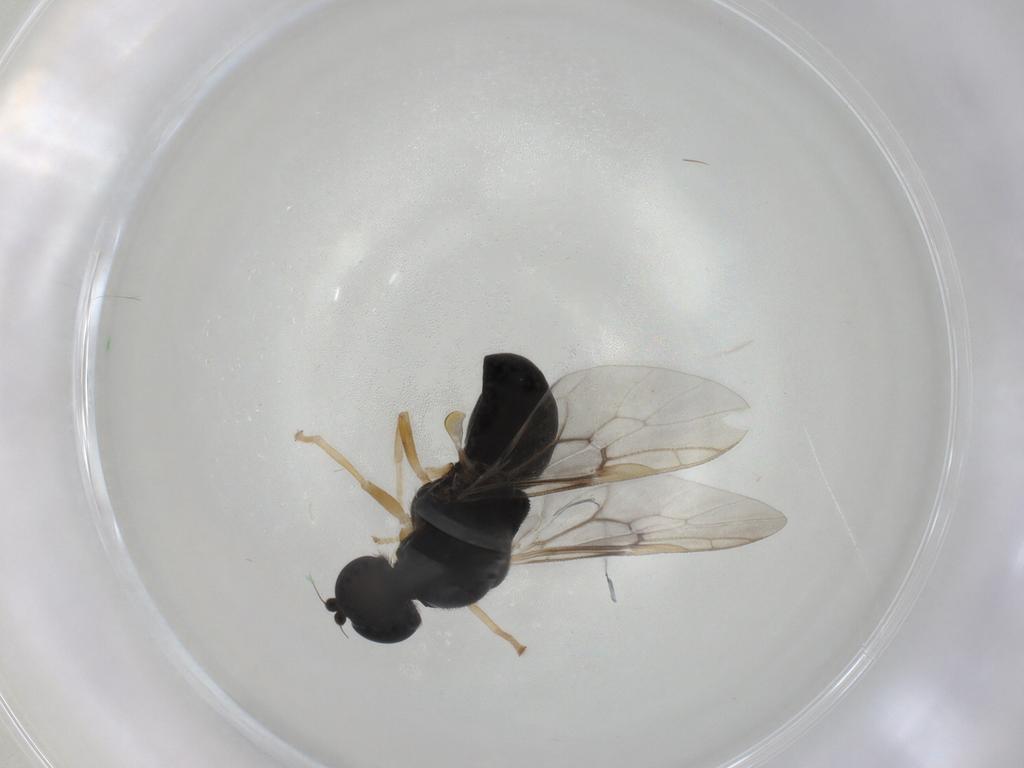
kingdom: Animalia
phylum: Arthropoda
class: Insecta
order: Diptera
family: Stratiomyidae
